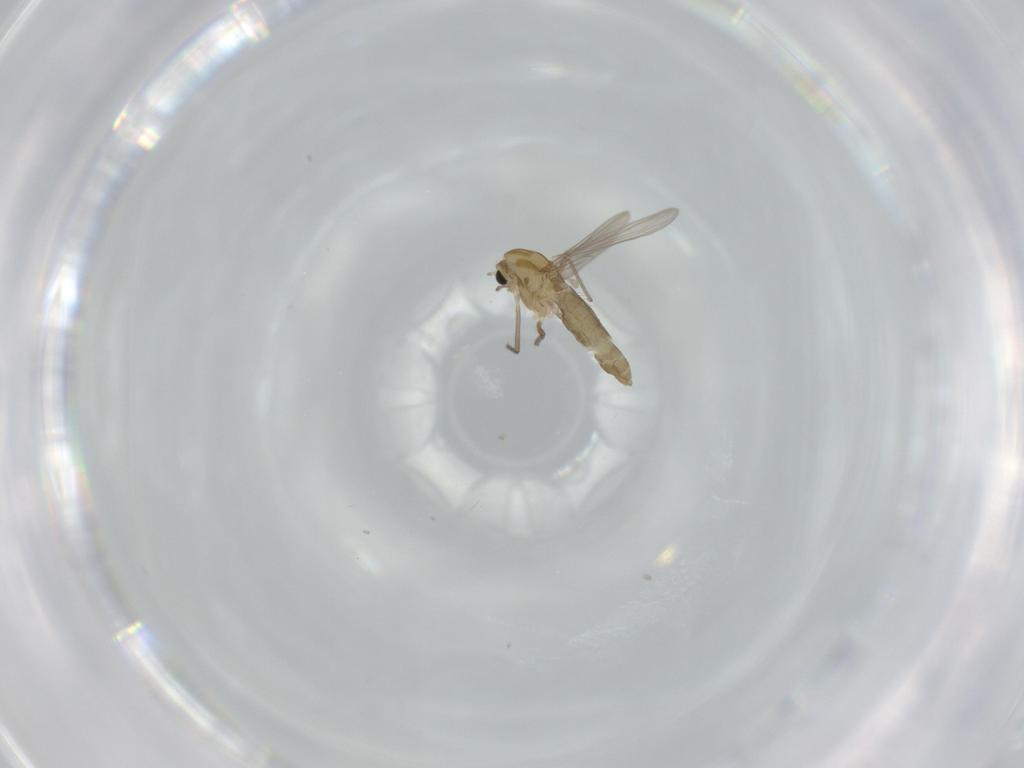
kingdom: Animalia
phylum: Arthropoda
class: Insecta
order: Diptera
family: Chironomidae
